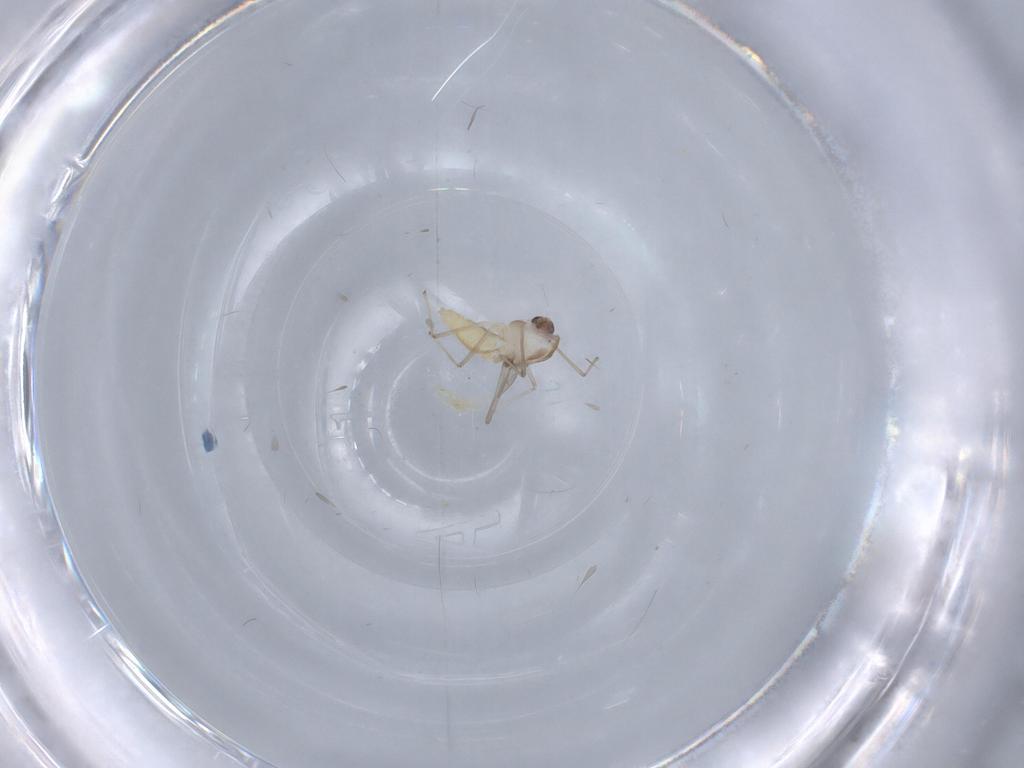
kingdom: Animalia
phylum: Arthropoda
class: Insecta
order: Diptera
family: Chironomidae
